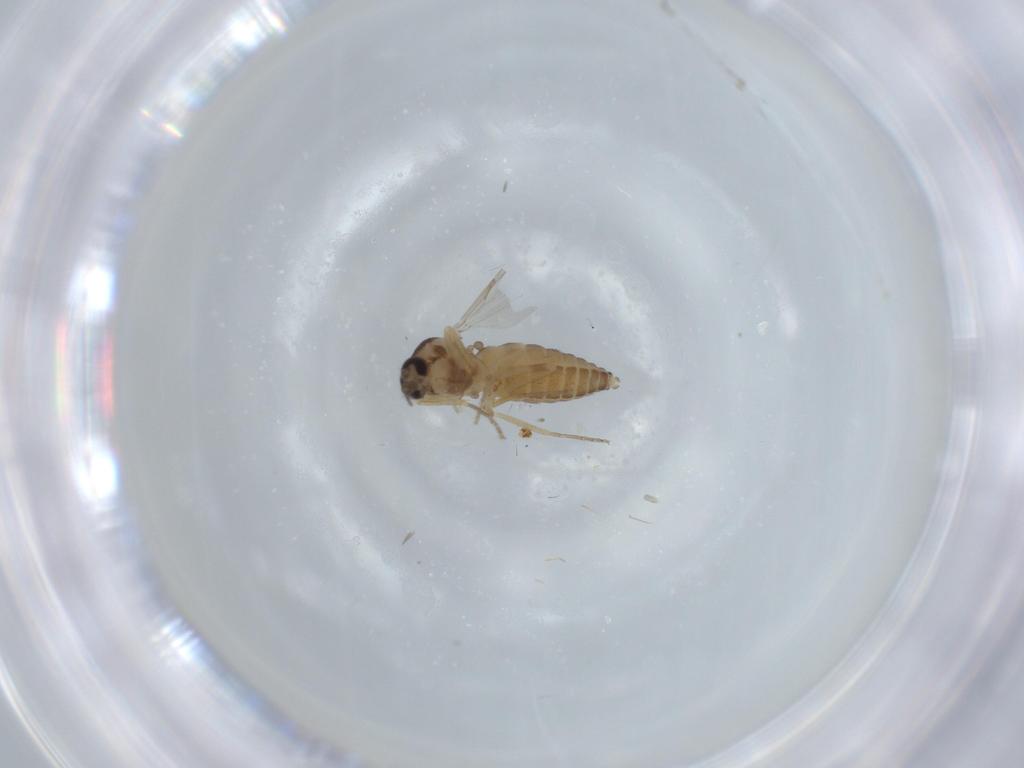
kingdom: Animalia
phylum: Arthropoda
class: Insecta
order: Diptera
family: Ceratopogonidae
